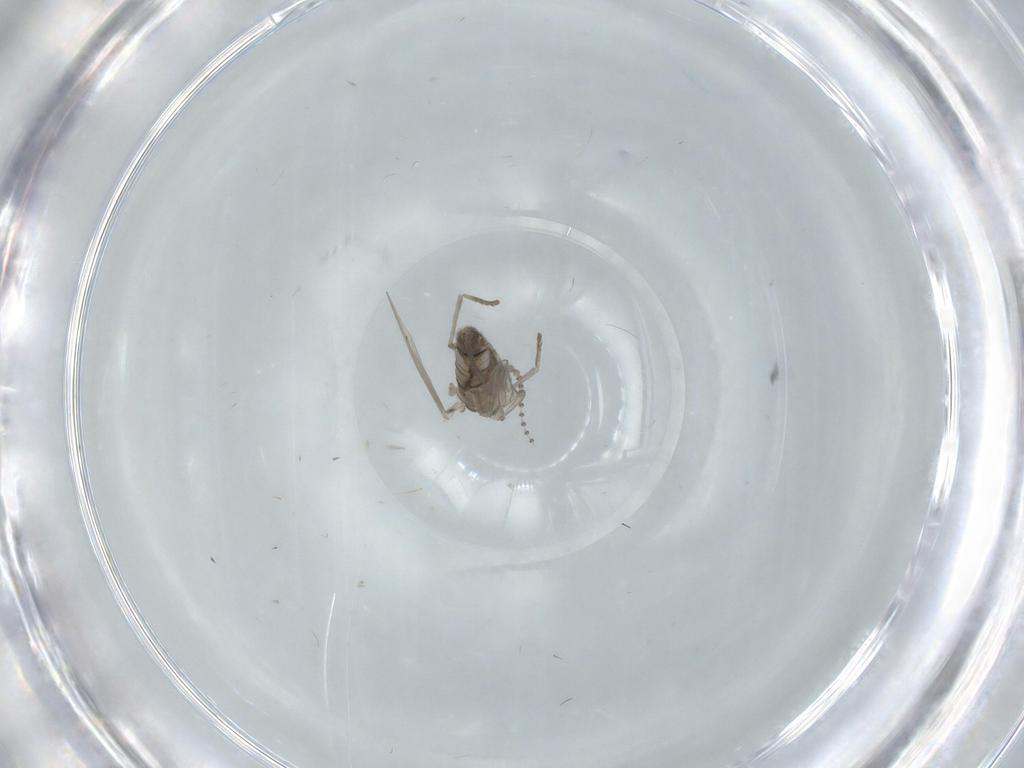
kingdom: Animalia
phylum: Arthropoda
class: Insecta
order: Diptera
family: Psychodidae
